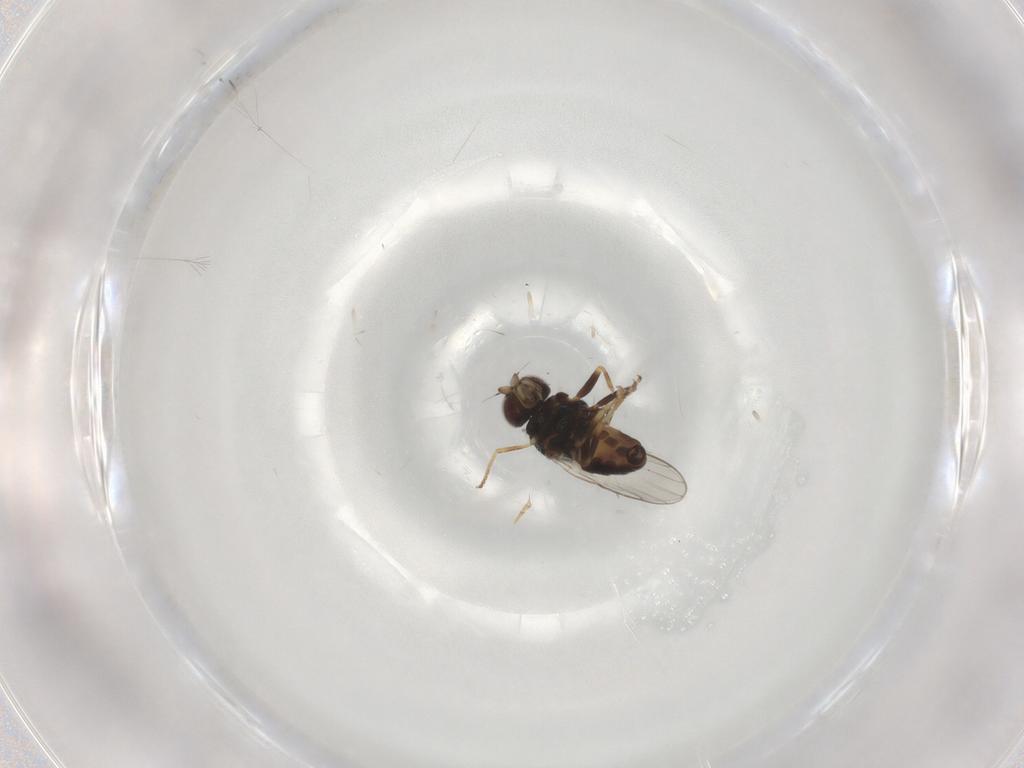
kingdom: Animalia
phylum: Arthropoda
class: Insecta
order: Diptera
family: Chloropidae
